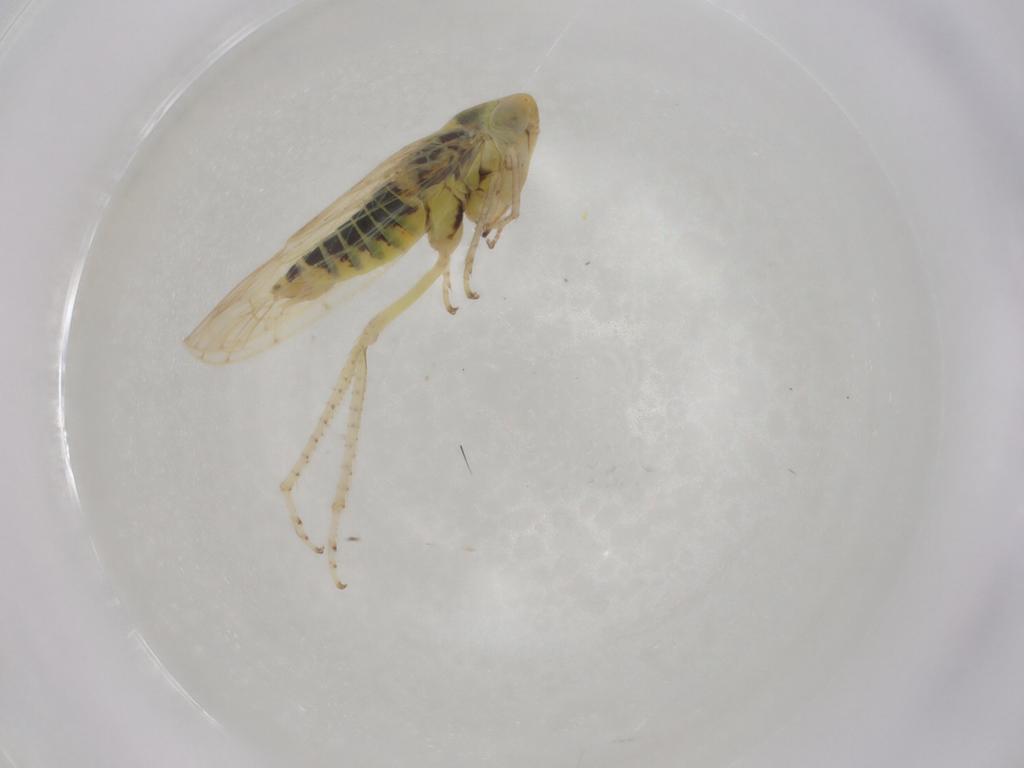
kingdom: Animalia
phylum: Arthropoda
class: Insecta
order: Hemiptera
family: Cicadellidae
